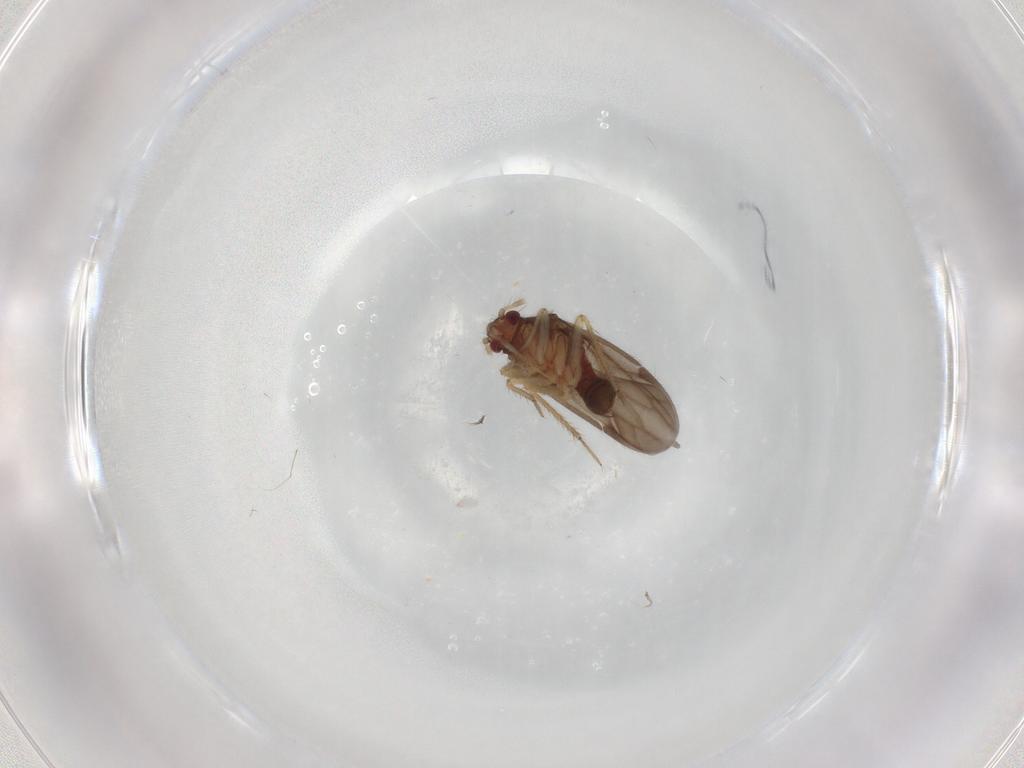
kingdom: Animalia
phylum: Arthropoda
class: Insecta
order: Hemiptera
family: Ceratocombidae
